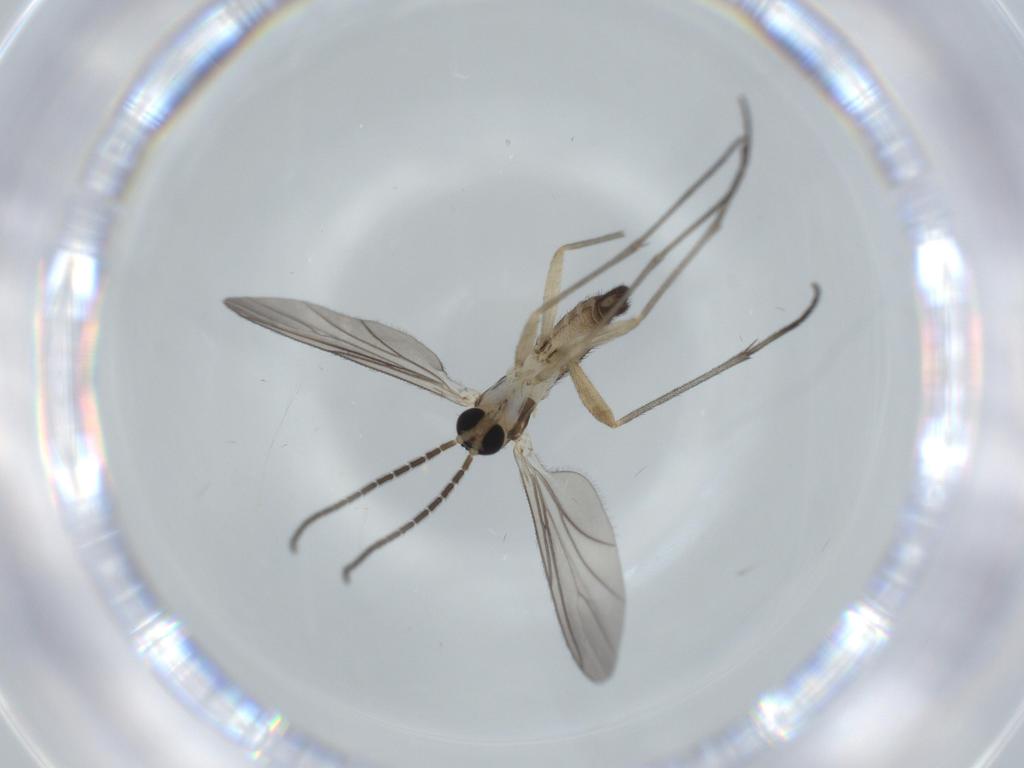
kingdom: Animalia
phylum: Arthropoda
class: Insecta
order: Diptera
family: Sciaridae
